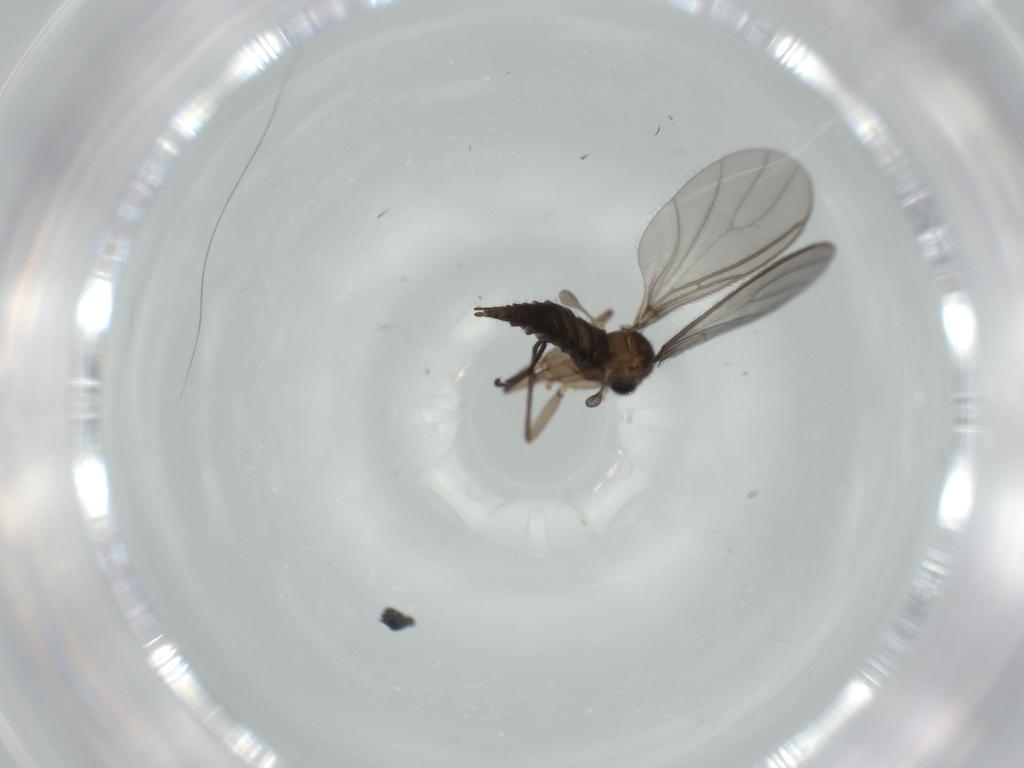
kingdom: Animalia
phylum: Arthropoda
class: Insecta
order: Diptera
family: Sciaridae
